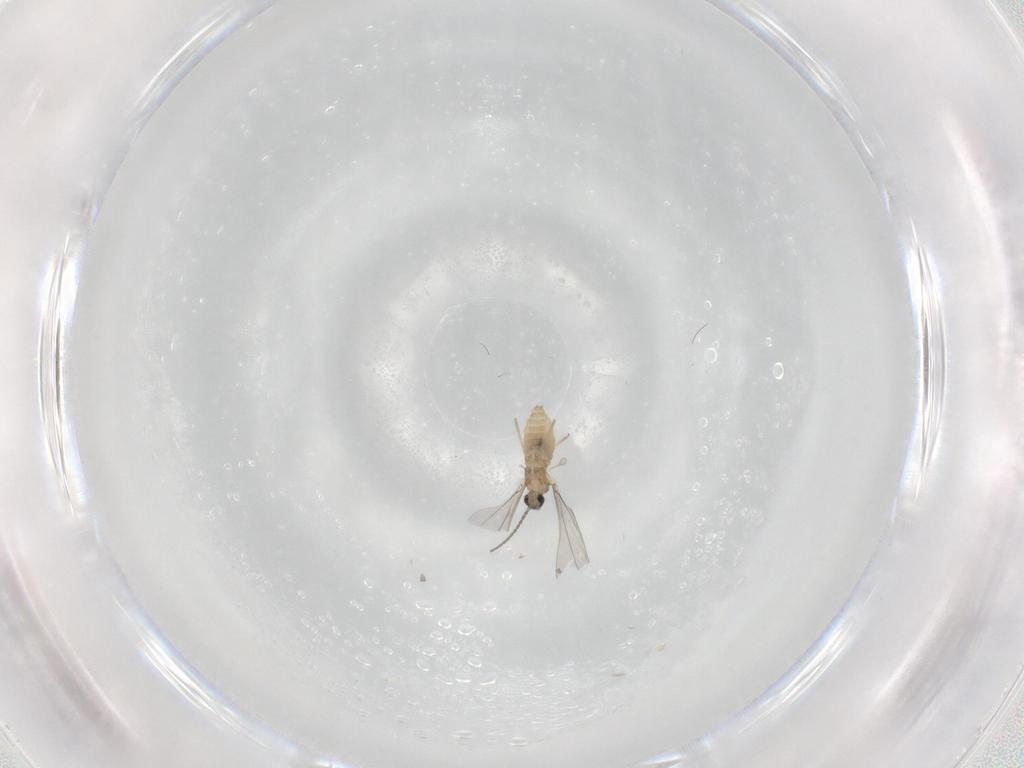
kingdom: Animalia
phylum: Arthropoda
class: Insecta
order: Diptera
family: Cecidomyiidae
